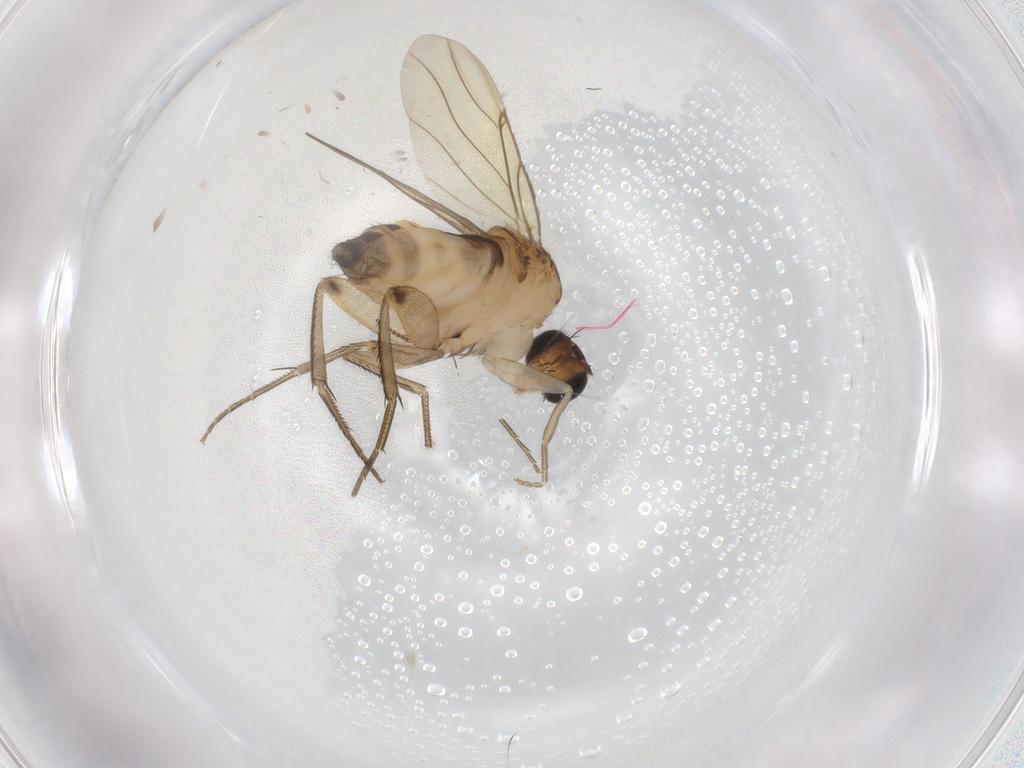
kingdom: Animalia
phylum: Arthropoda
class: Insecta
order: Diptera
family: Phoridae
